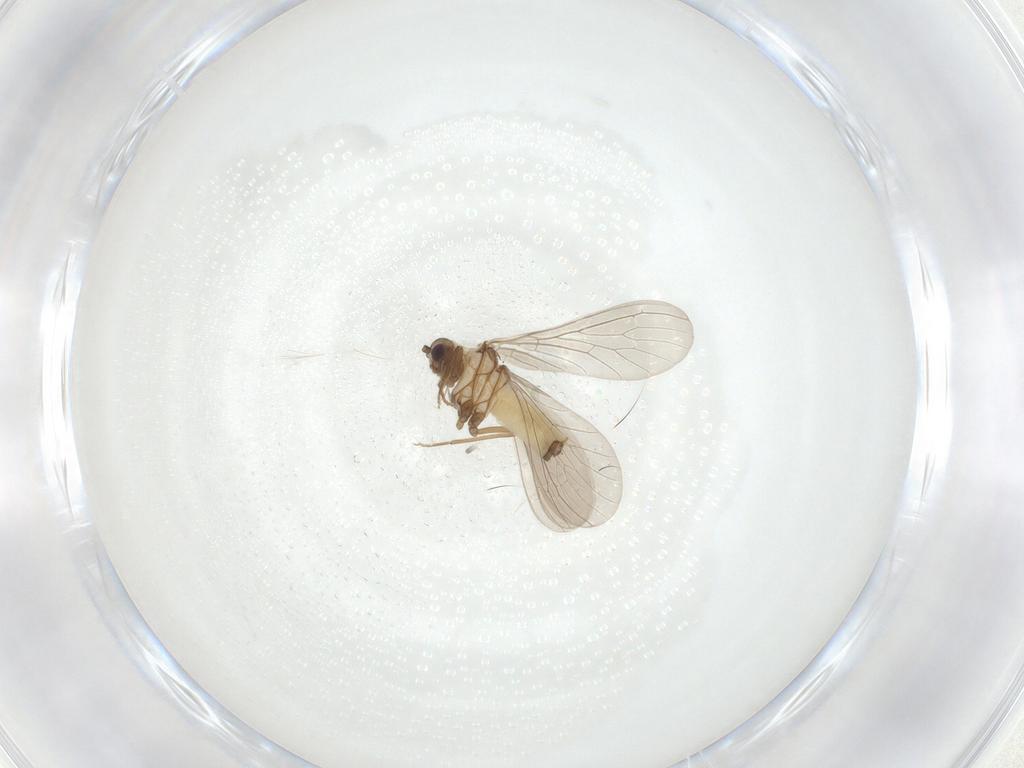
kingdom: Animalia
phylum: Arthropoda
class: Insecta
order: Neuroptera
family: Coniopterygidae
